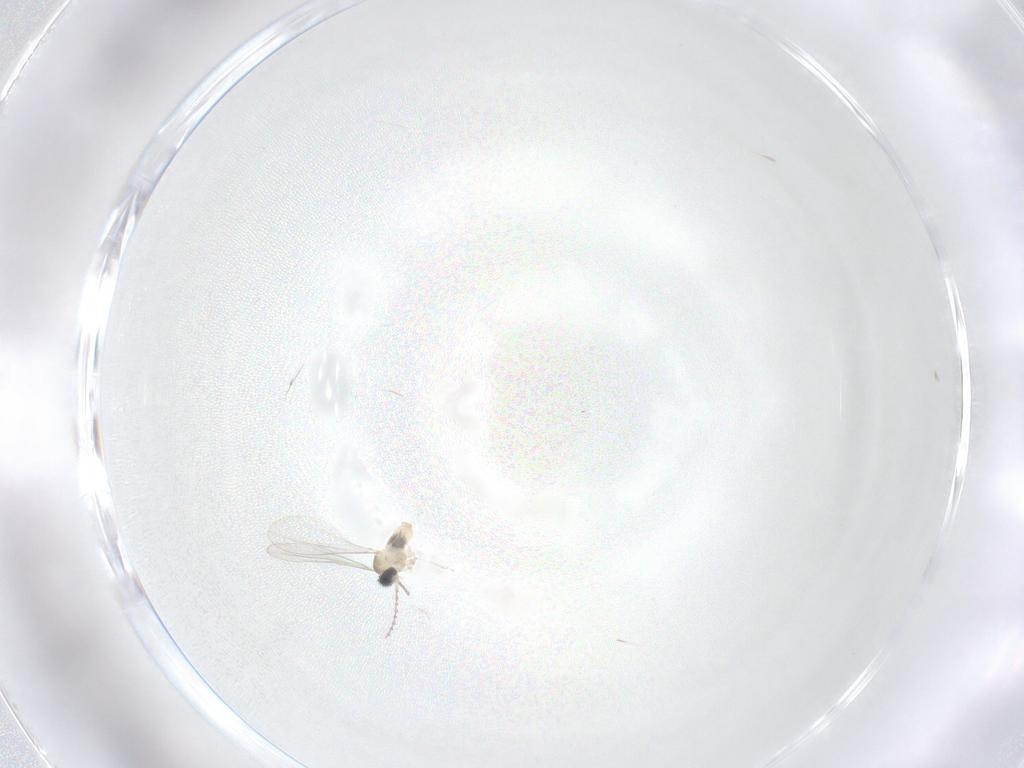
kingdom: Animalia
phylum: Arthropoda
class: Insecta
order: Diptera
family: Cecidomyiidae
